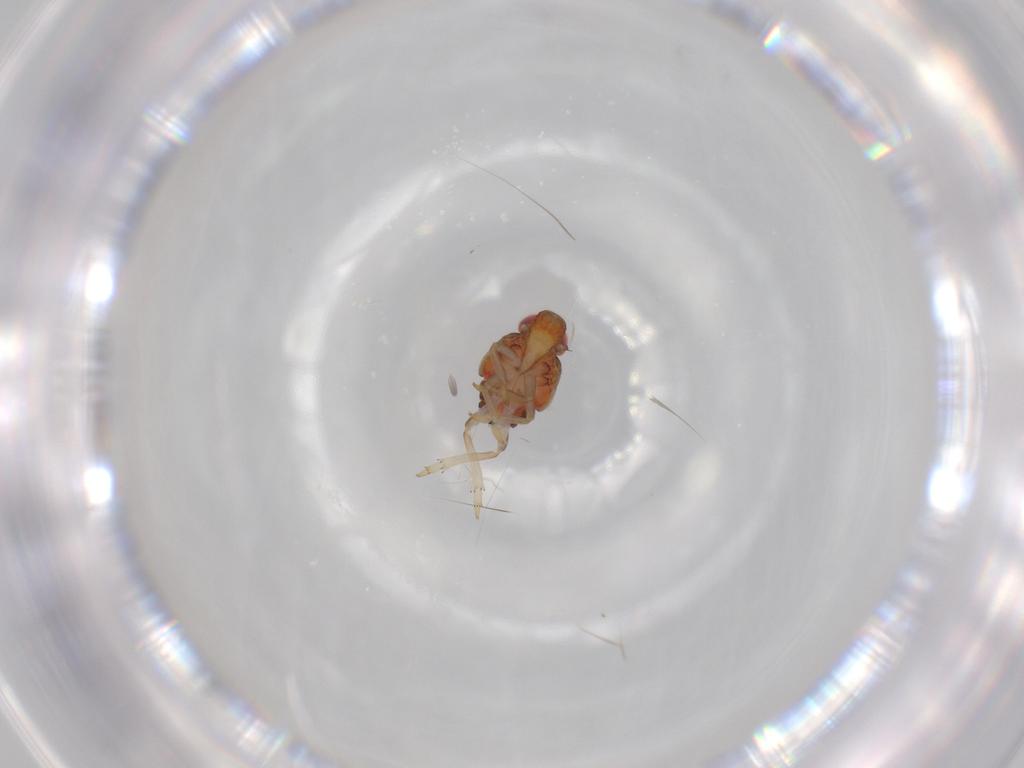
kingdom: Animalia
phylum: Arthropoda
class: Insecta
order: Hemiptera
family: Issidae
